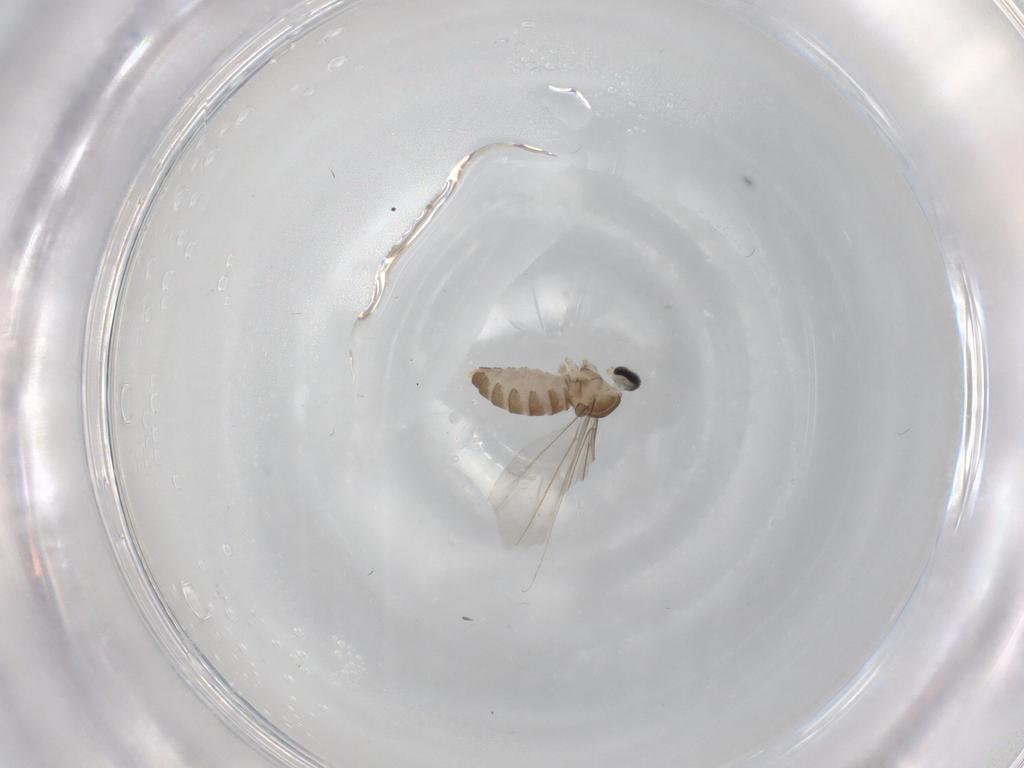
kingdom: Animalia
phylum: Arthropoda
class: Insecta
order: Diptera
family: Cecidomyiidae
